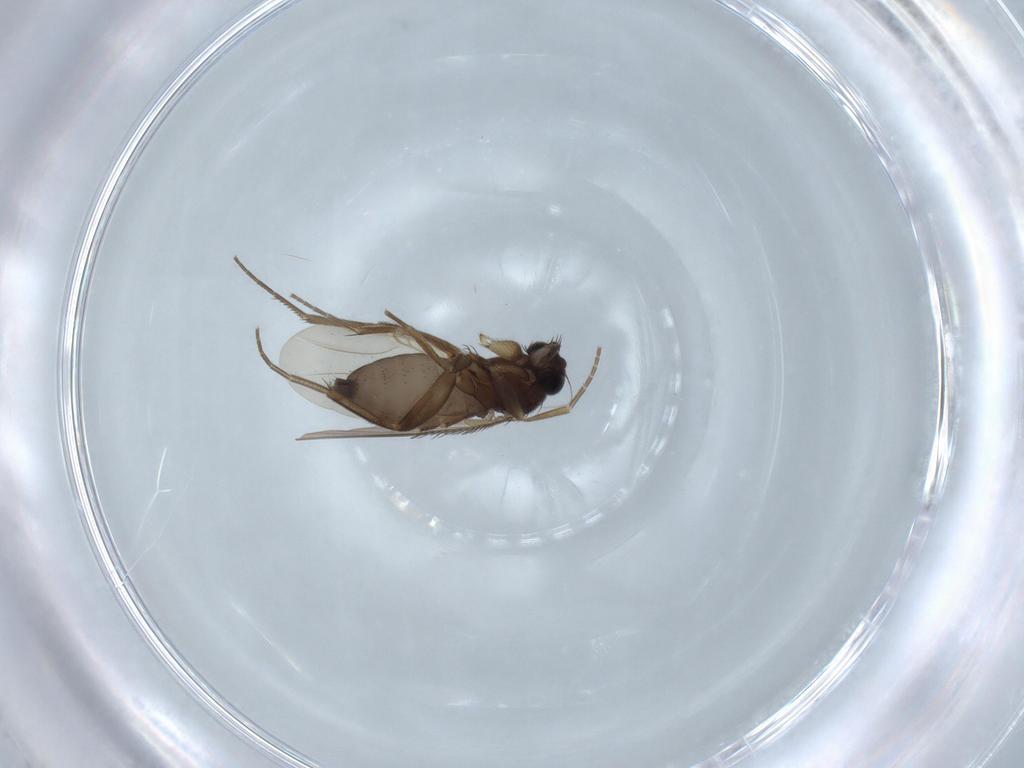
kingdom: Animalia
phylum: Arthropoda
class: Insecta
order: Diptera
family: Phoridae
